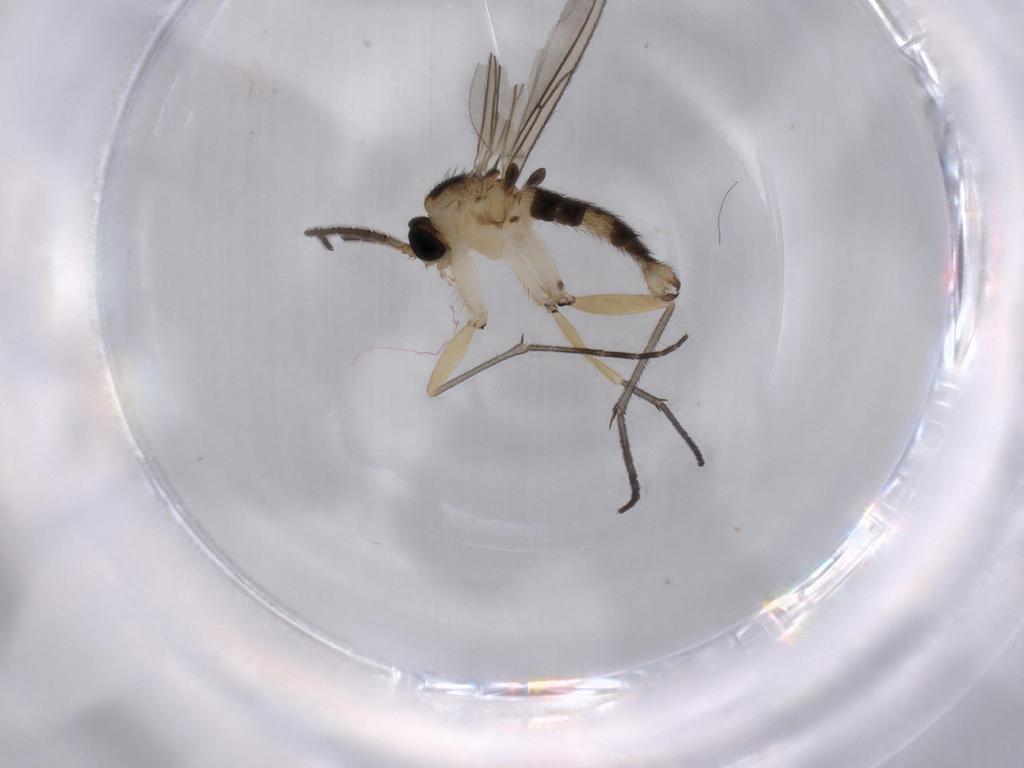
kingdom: Animalia
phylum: Arthropoda
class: Insecta
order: Diptera
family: Sciaridae
